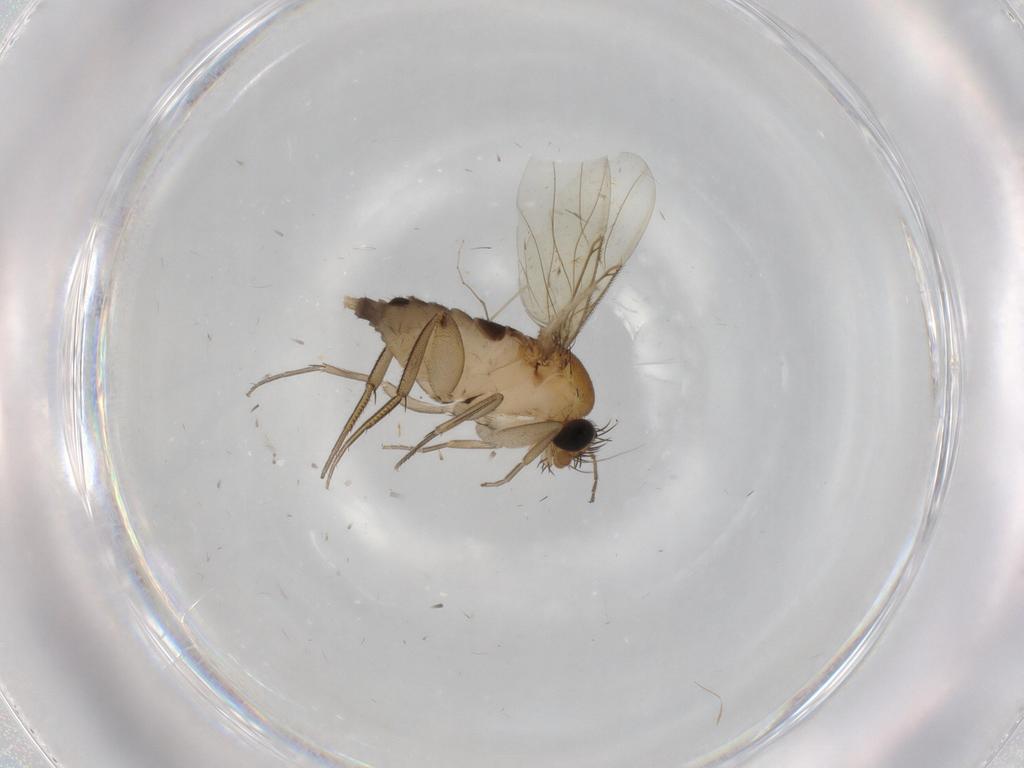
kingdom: Animalia
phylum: Arthropoda
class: Insecta
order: Diptera
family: Phoridae
